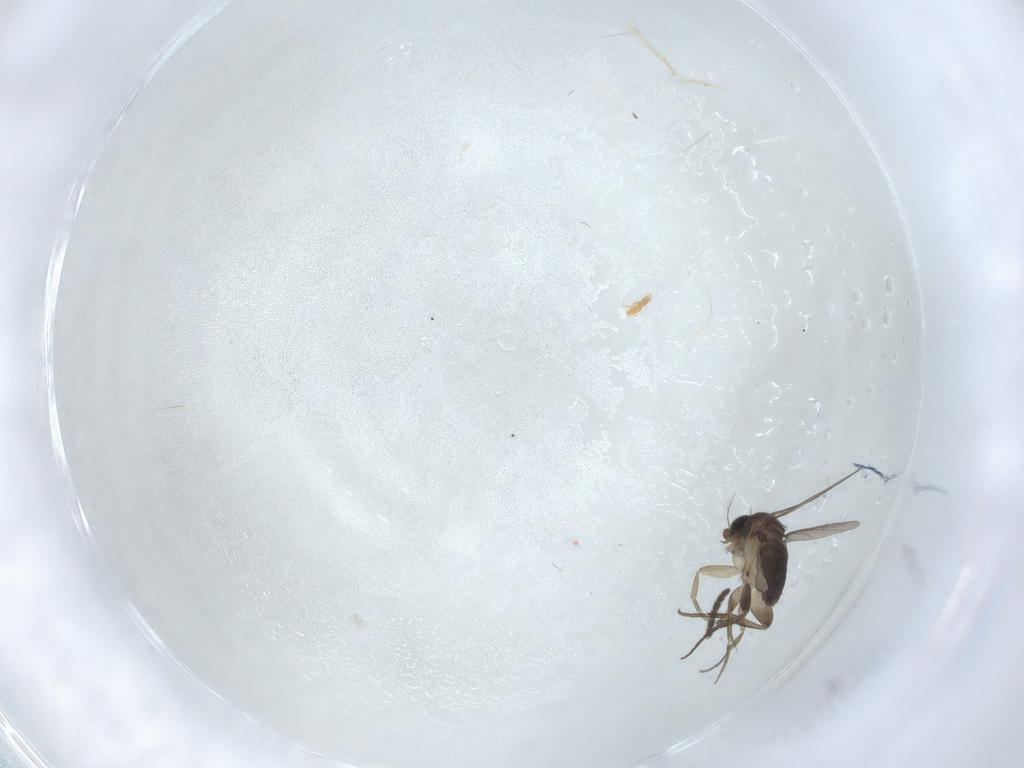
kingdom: Animalia
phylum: Arthropoda
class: Insecta
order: Diptera
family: Phoridae
